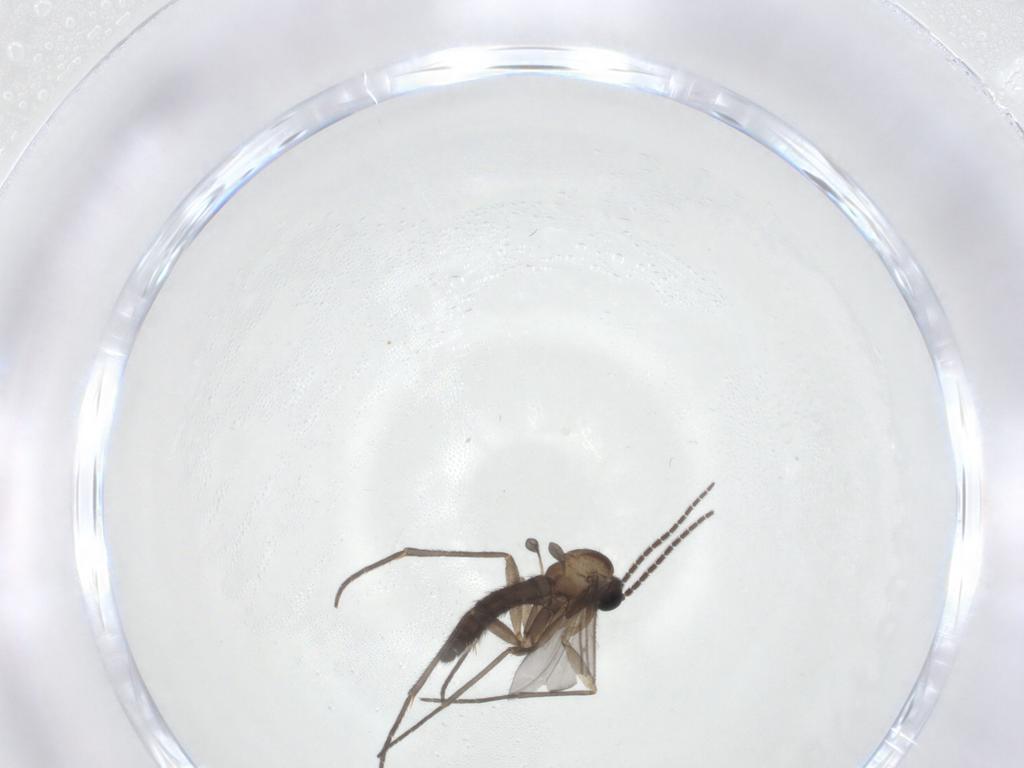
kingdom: Animalia
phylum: Arthropoda
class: Insecta
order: Diptera
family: Sciaridae
